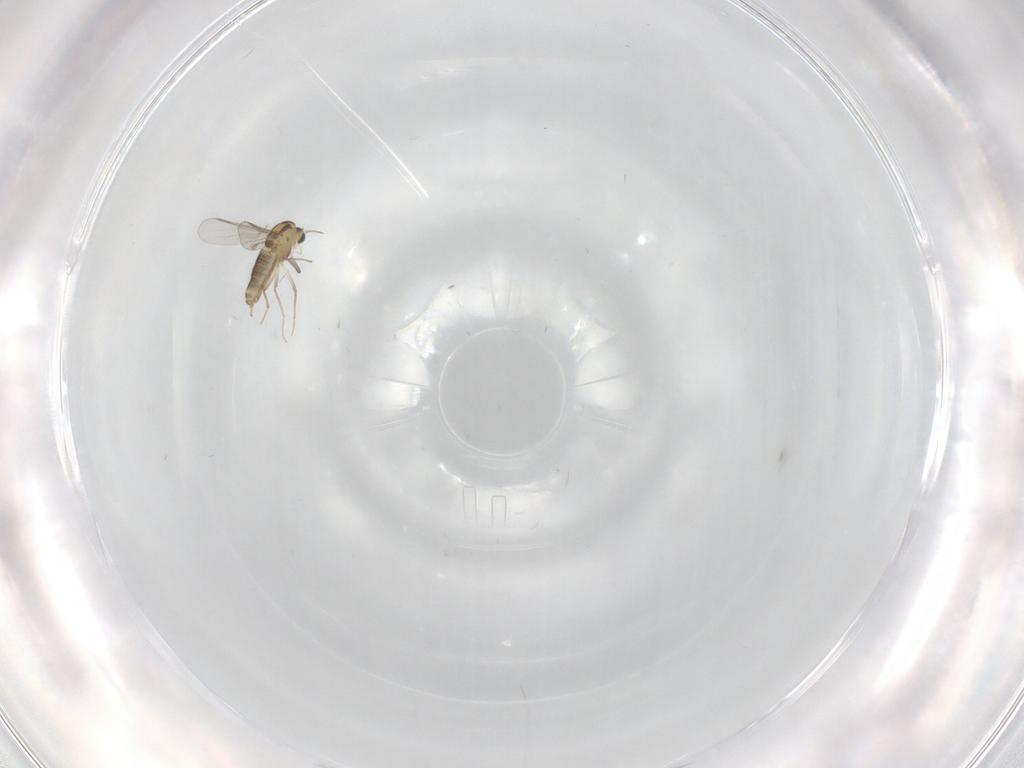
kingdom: Animalia
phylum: Arthropoda
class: Insecta
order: Diptera
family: Chironomidae
